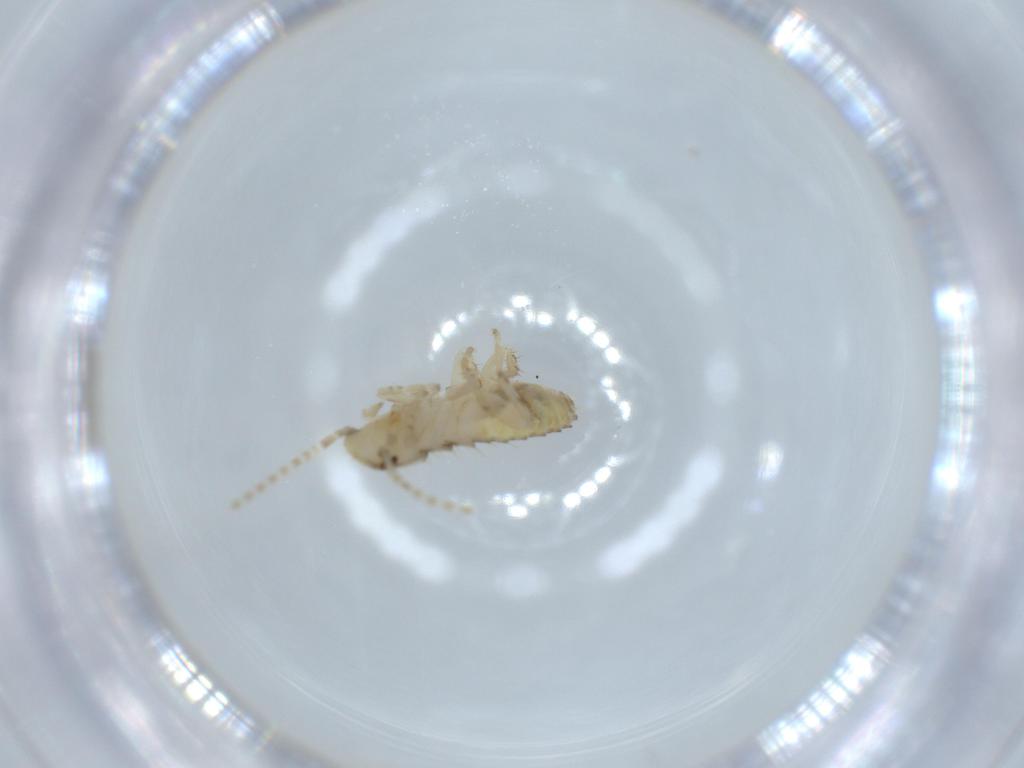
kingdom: Animalia
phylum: Arthropoda
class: Insecta
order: Blattodea
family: Ectobiidae
